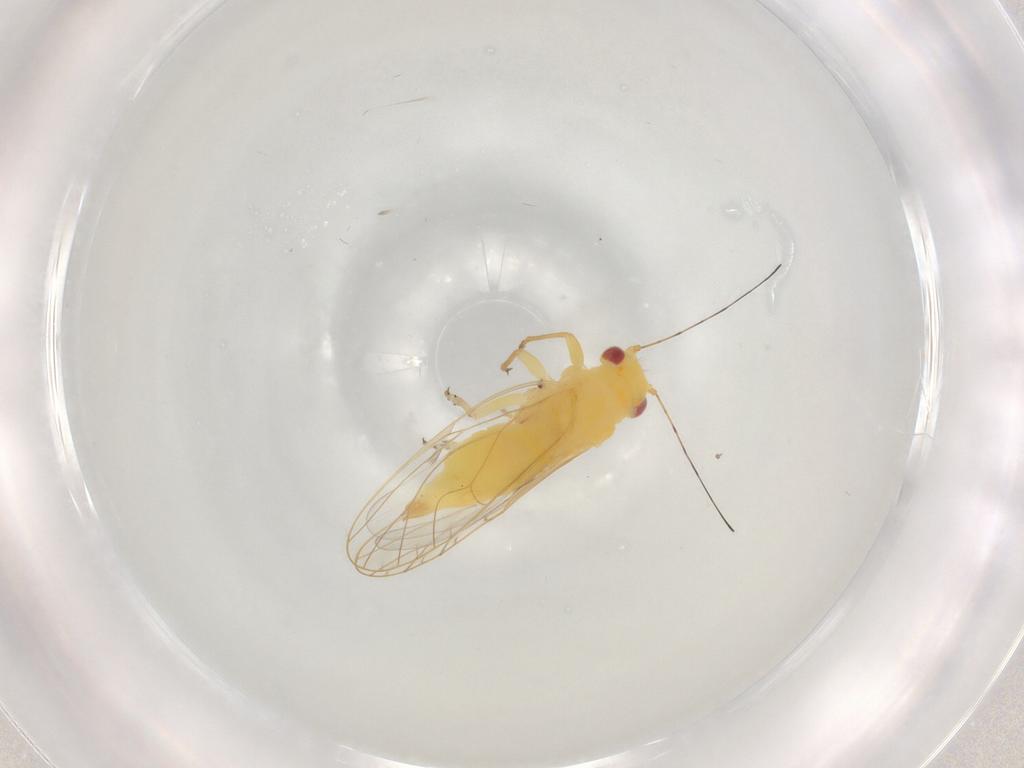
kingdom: Animalia
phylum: Arthropoda
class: Insecta
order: Hemiptera
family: Psyllidae
